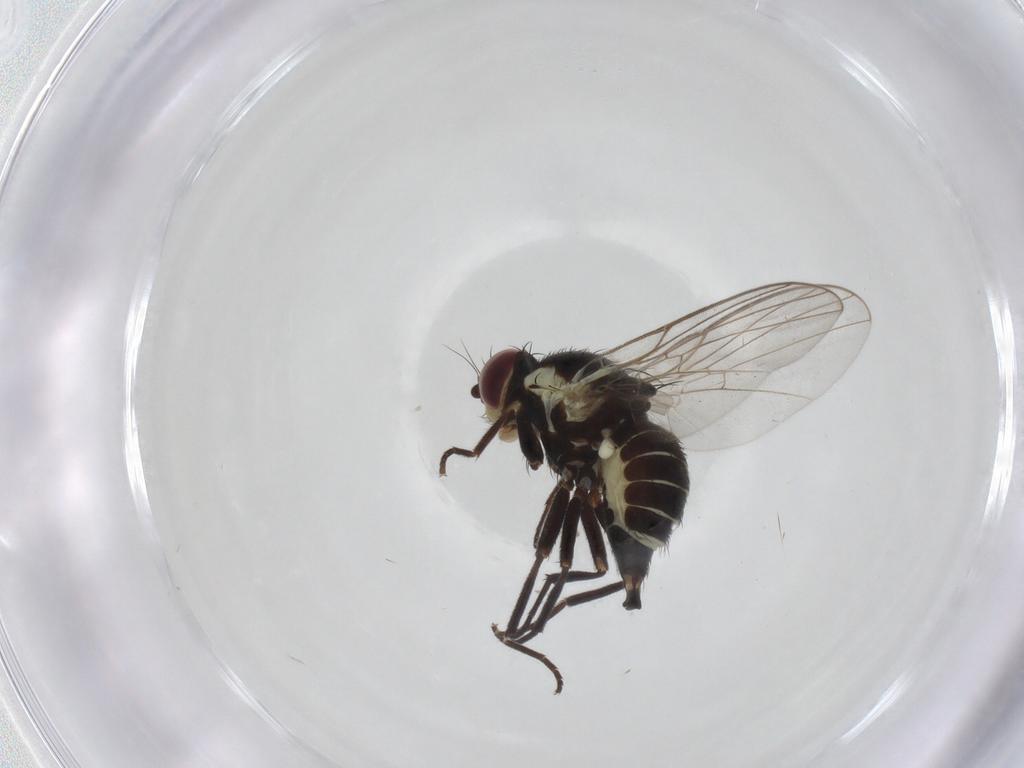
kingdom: Animalia
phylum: Arthropoda
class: Insecta
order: Diptera
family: Agromyzidae
